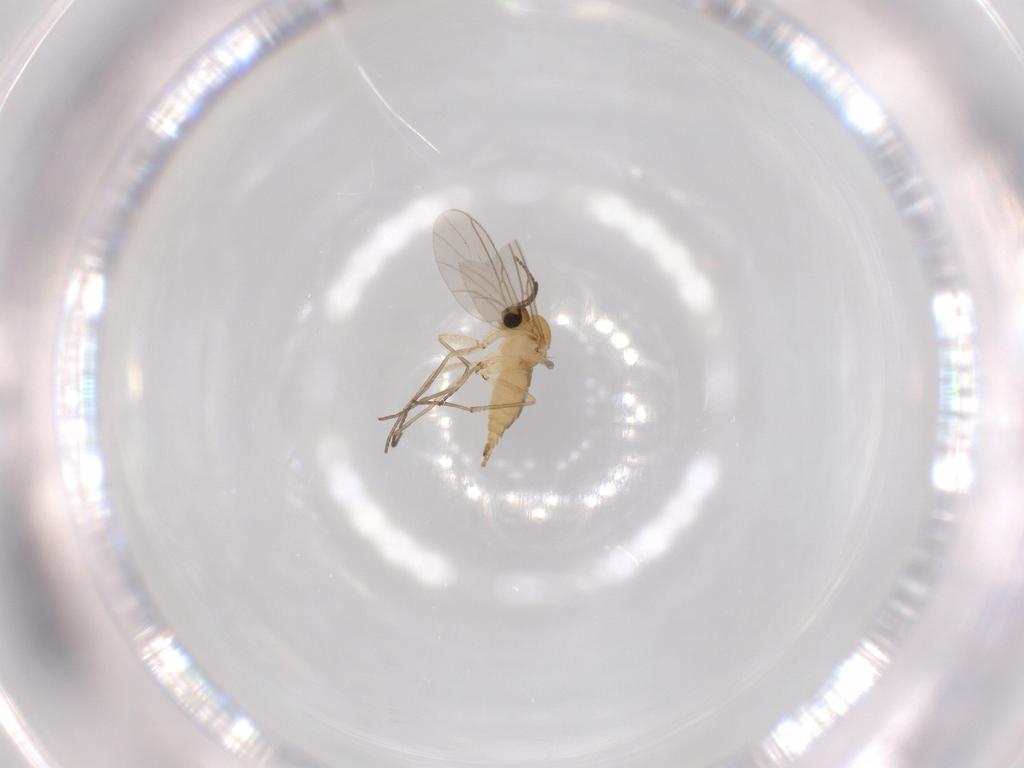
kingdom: Animalia
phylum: Arthropoda
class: Insecta
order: Diptera
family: Sciaridae
